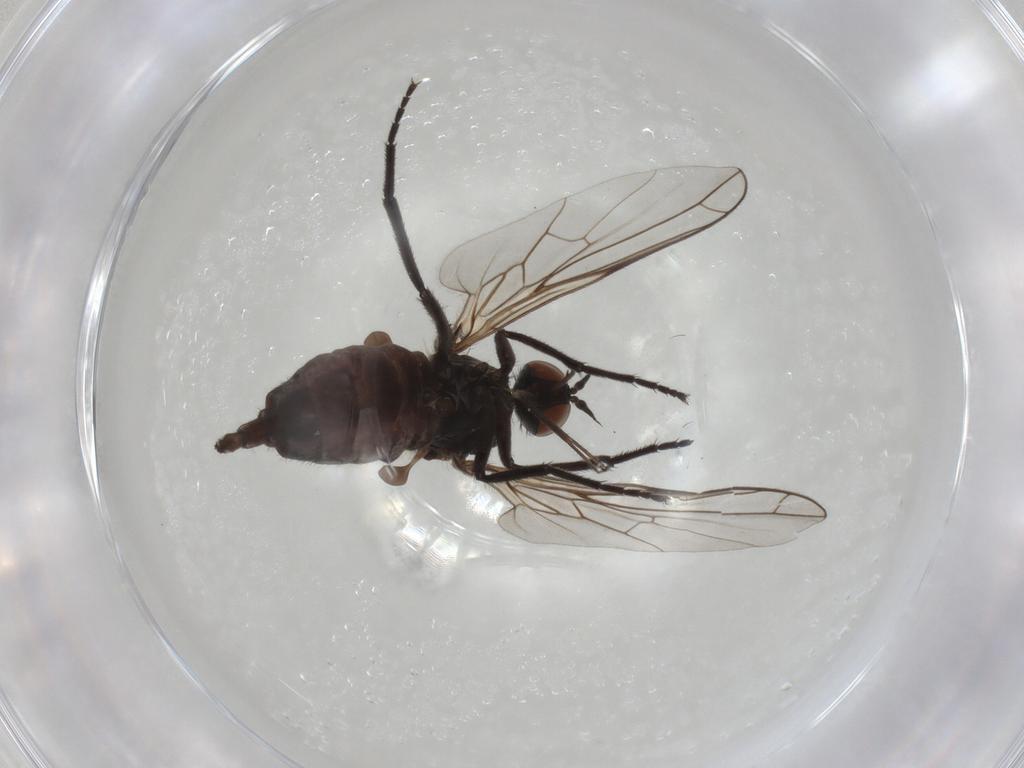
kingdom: Animalia
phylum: Arthropoda
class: Insecta
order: Diptera
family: Empididae
